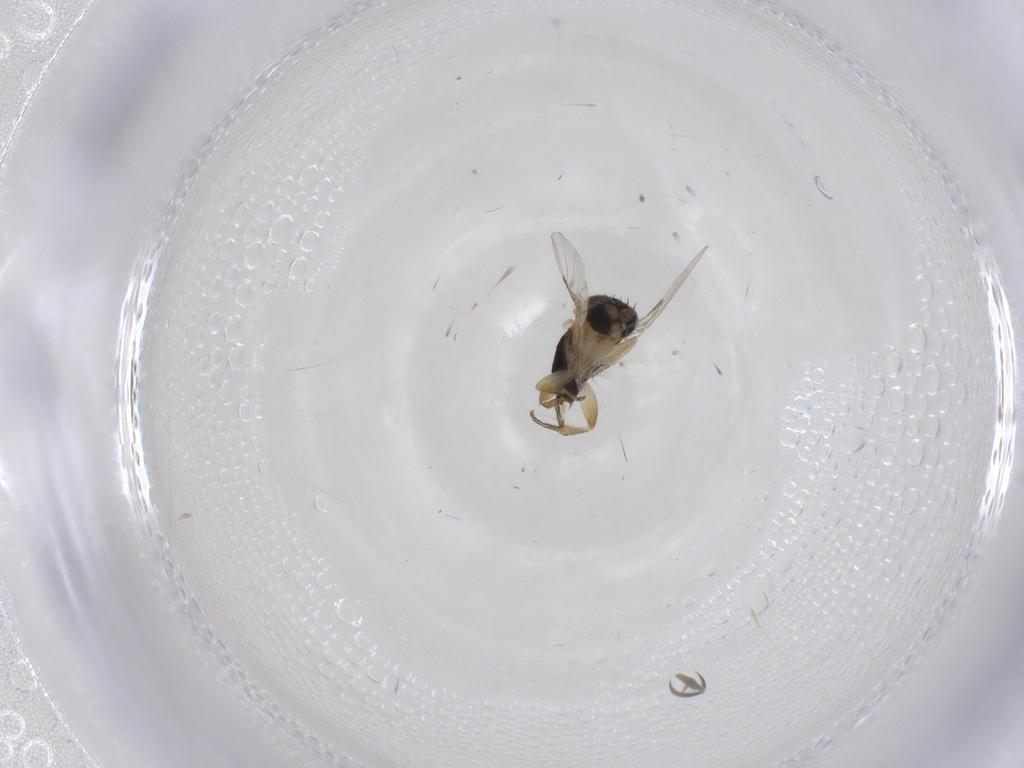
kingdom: Animalia
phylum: Arthropoda
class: Insecta
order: Diptera
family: Phoridae
